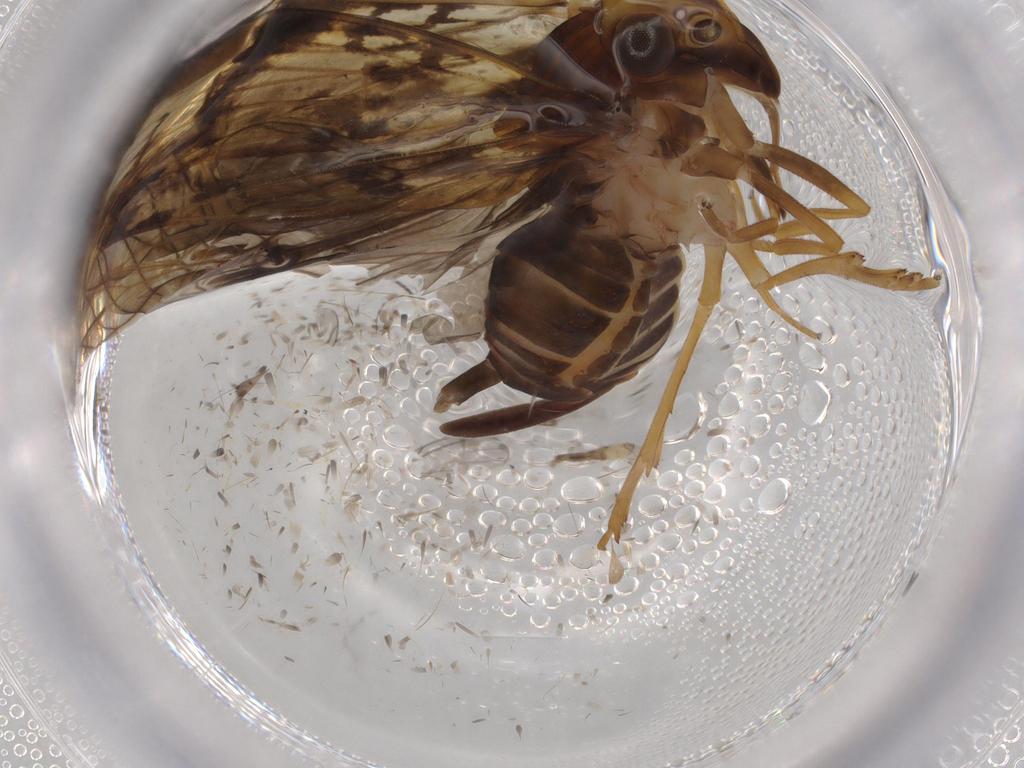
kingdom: Animalia
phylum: Arthropoda
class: Insecta
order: Hemiptera
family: Cixiidae
